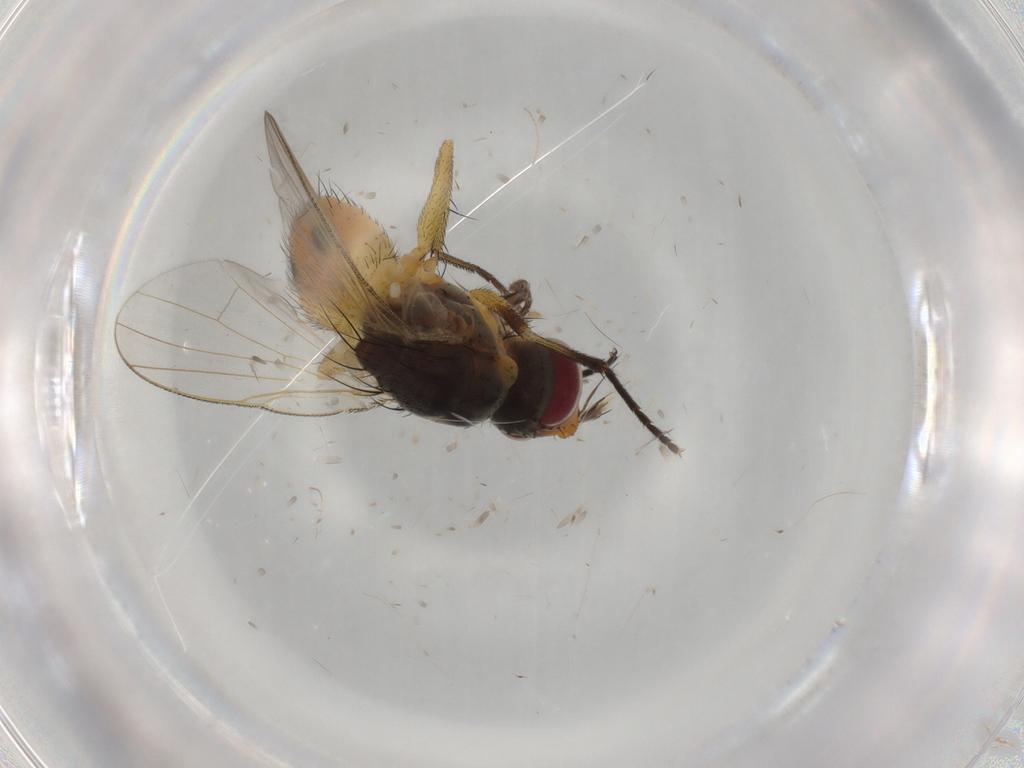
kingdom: Animalia
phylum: Arthropoda
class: Insecta
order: Diptera
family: Muscidae
